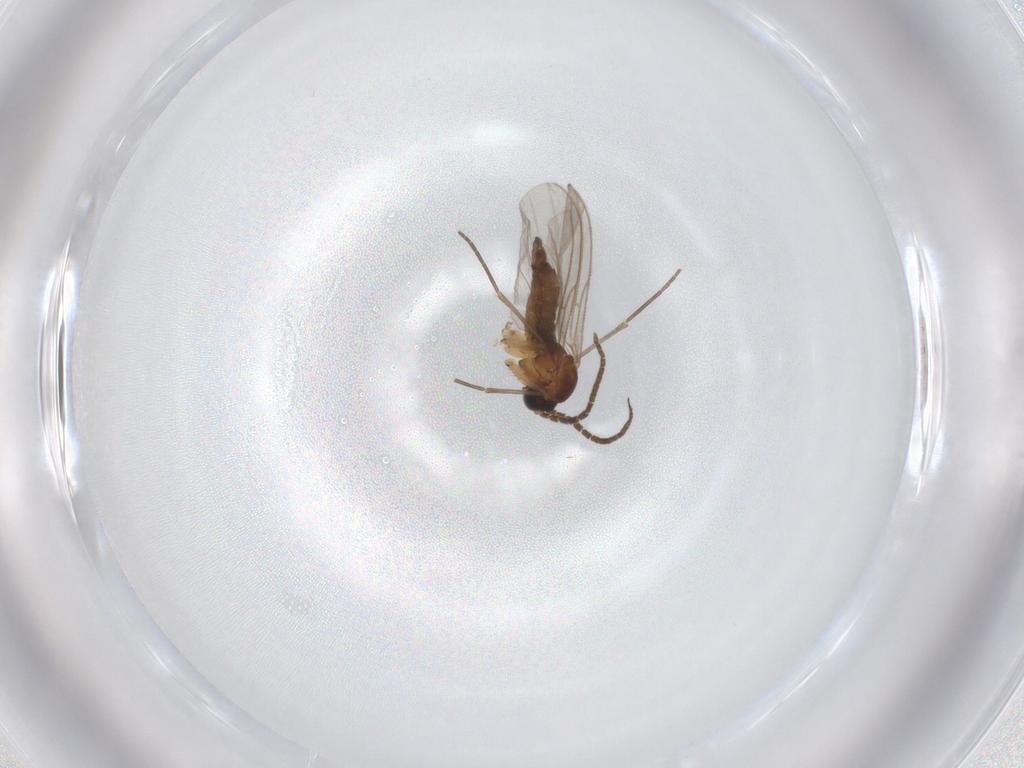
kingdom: Animalia
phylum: Arthropoda
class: Insecta
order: Diptera
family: Sciaridae
